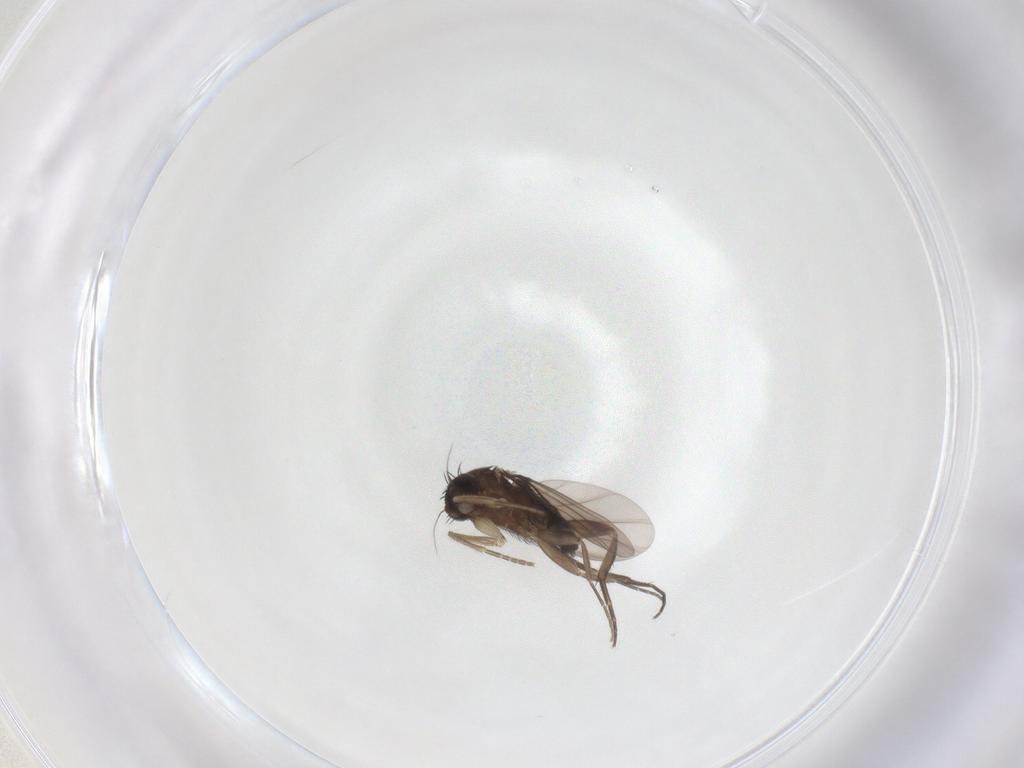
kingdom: Animalia
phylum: Arthropoda
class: Insecta
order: Diptera
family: Phoridae
